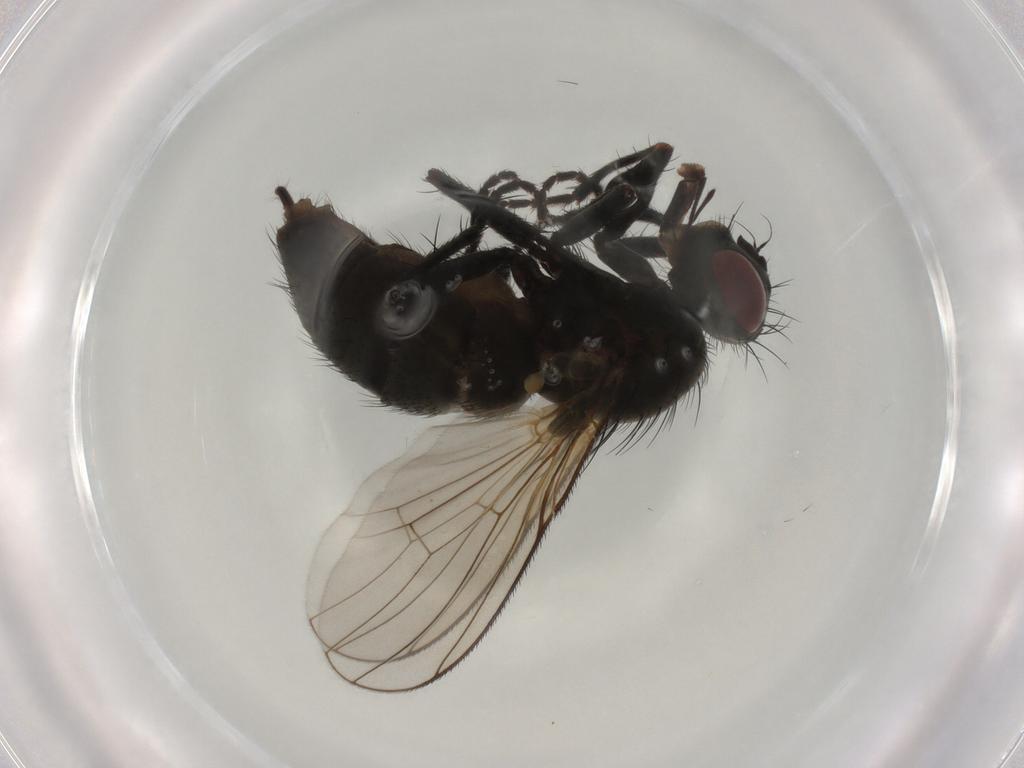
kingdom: Animalia
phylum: Arthropoda
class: Insecta
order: Diptera
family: Muscidae
